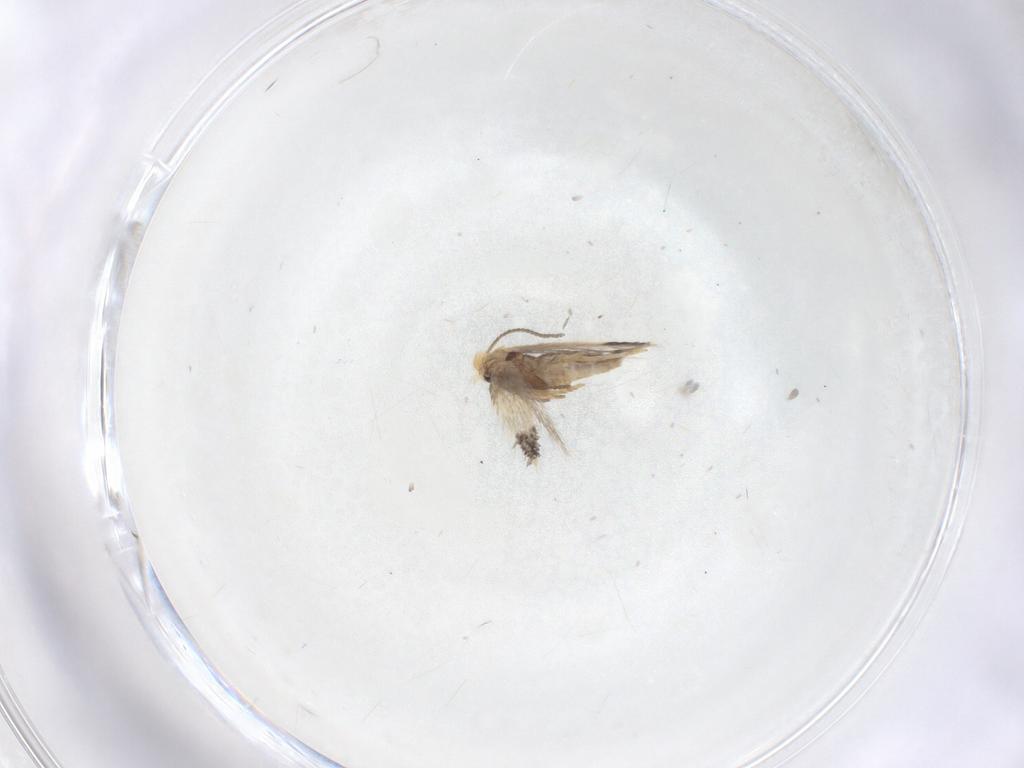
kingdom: Animalia
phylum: Arthropoda
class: Insecta
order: Lepidoptera
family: Nepticulidae
